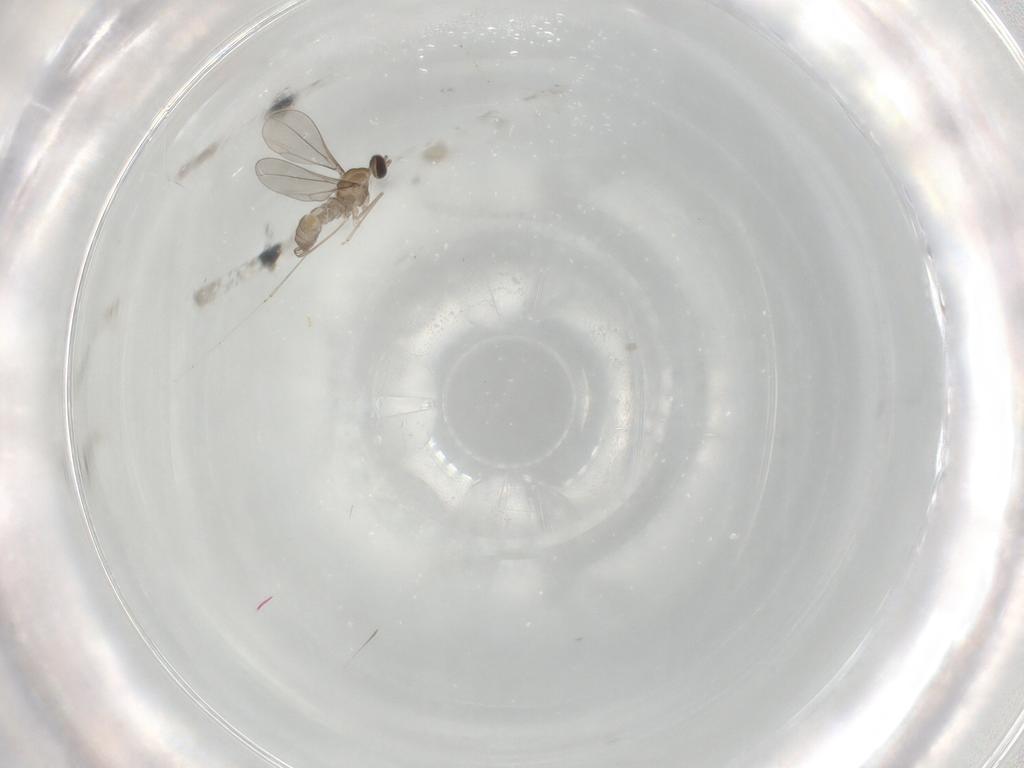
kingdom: Animalia
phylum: Arthropoda
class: Insecta
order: Diptera
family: Cecidomyiidae
